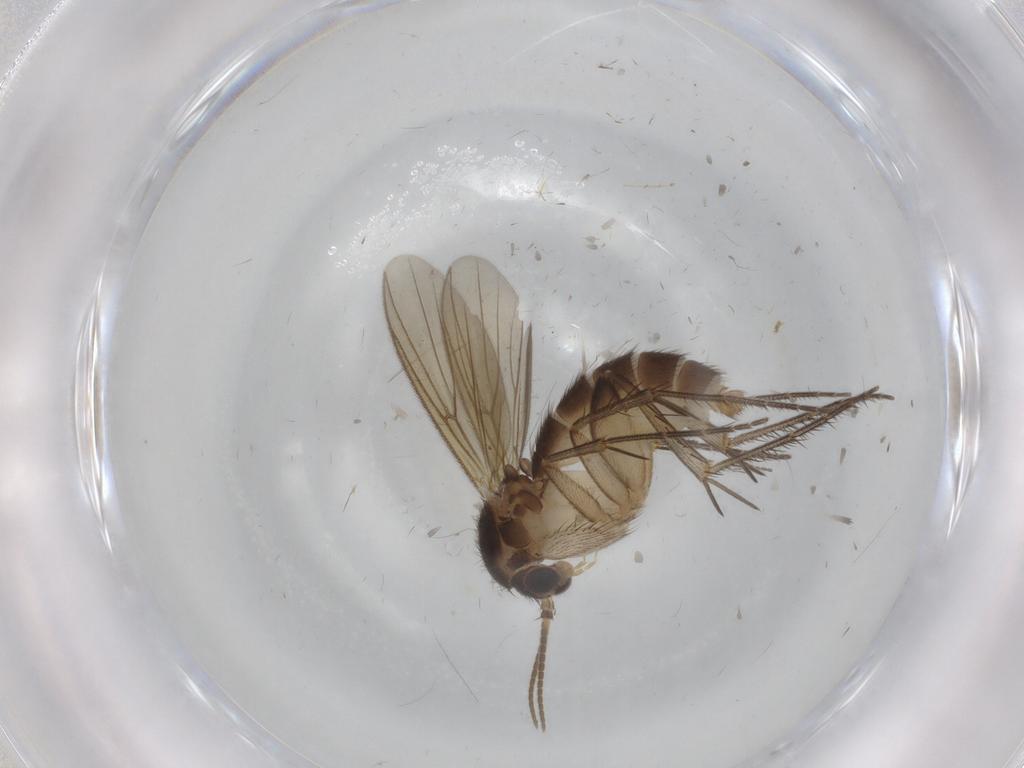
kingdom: Animalia
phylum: Arthropoda
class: Insecta
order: Diptera
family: Mycetophilidae
